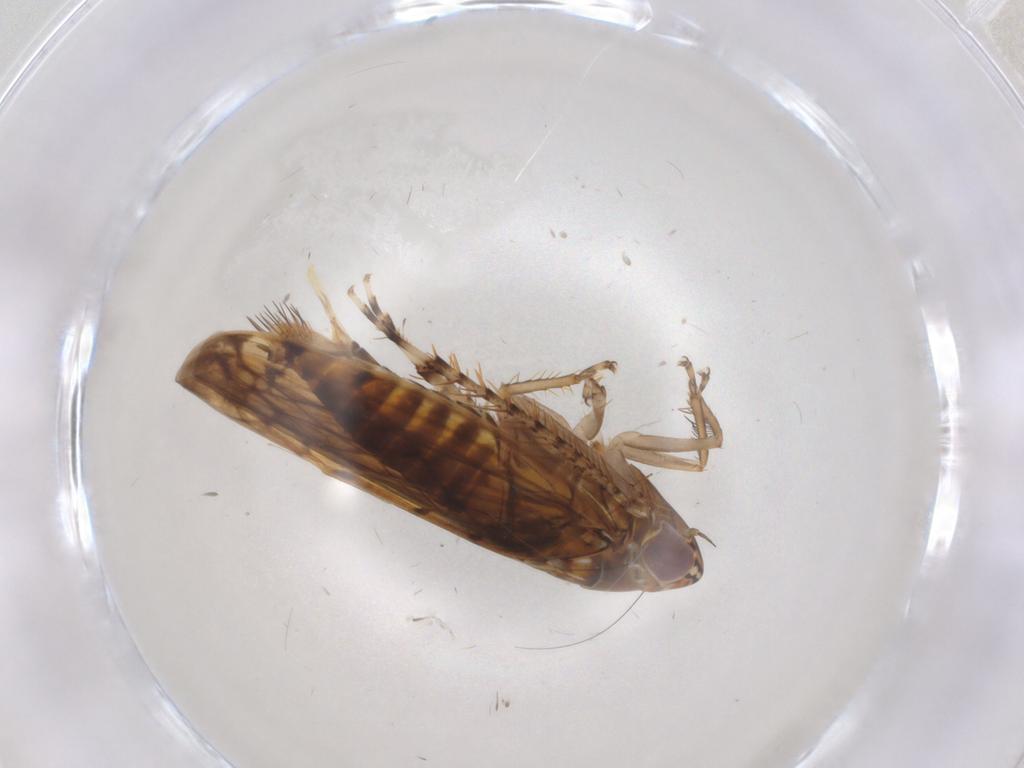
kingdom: Animalia
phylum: Arthropoda
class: Insecta
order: Hemiptera
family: Cicadellidae
